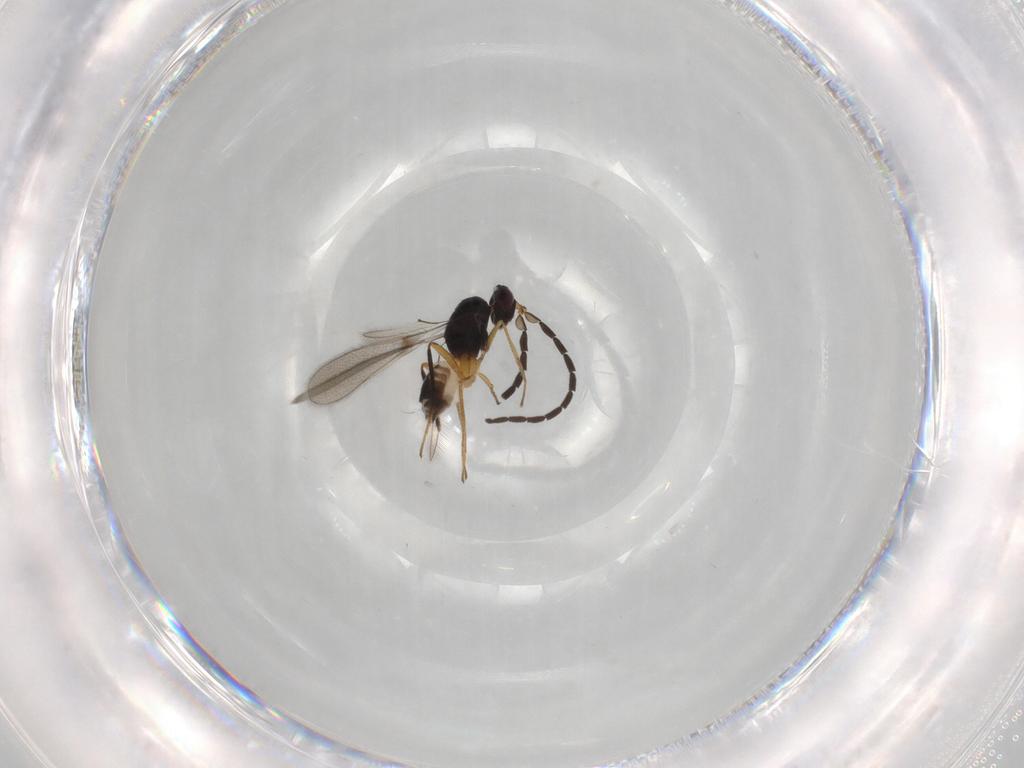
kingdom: Animalia
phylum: Arthropoda
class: Insecta
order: Hymenoptera
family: Mymaridae
